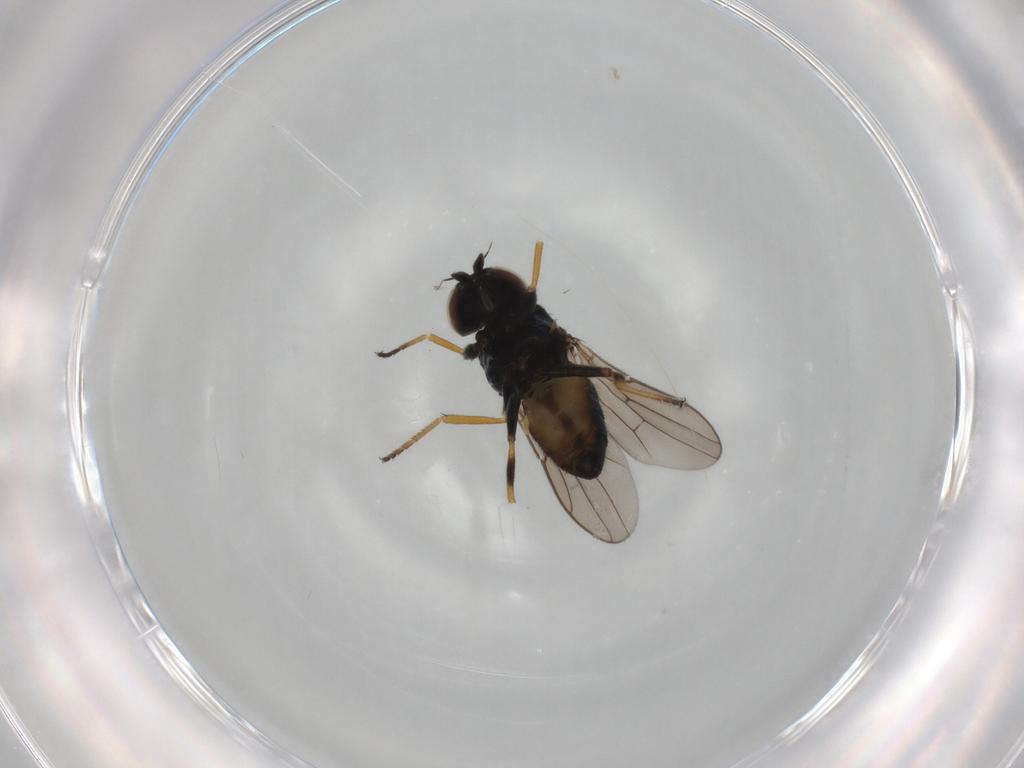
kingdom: Animalia
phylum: Arthropoda
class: Insecta
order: Diptera
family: Chloropidae
